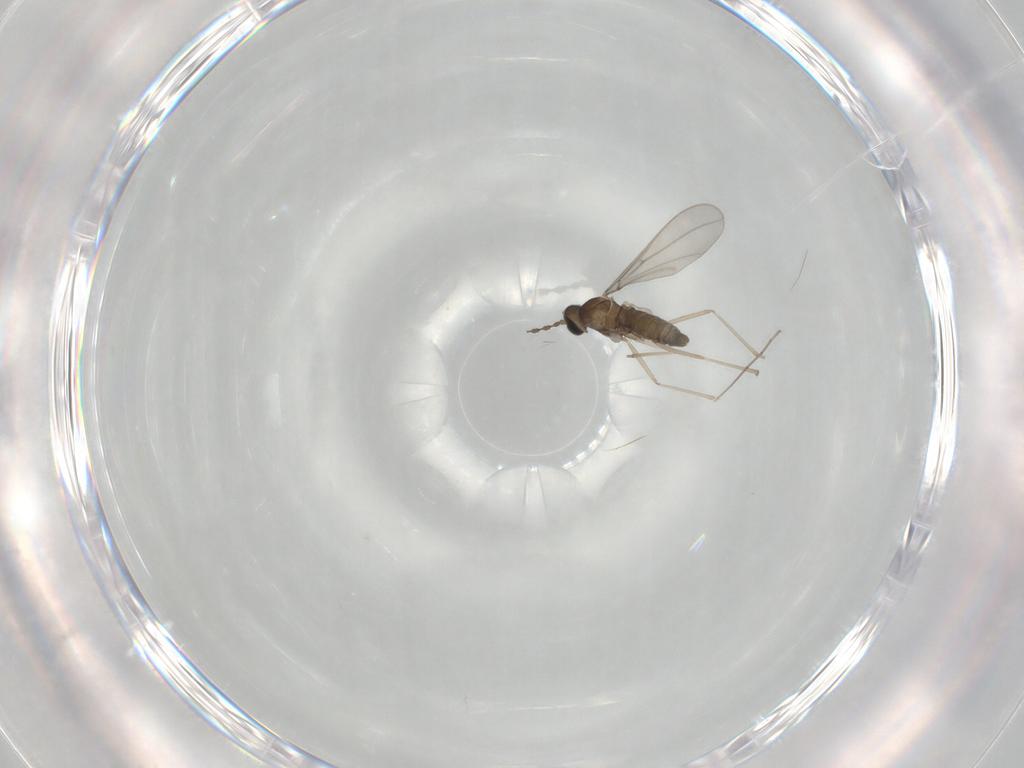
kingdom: Animalia
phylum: Arthropoda
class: Insecta
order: Diptera
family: Cecidomyiidae
